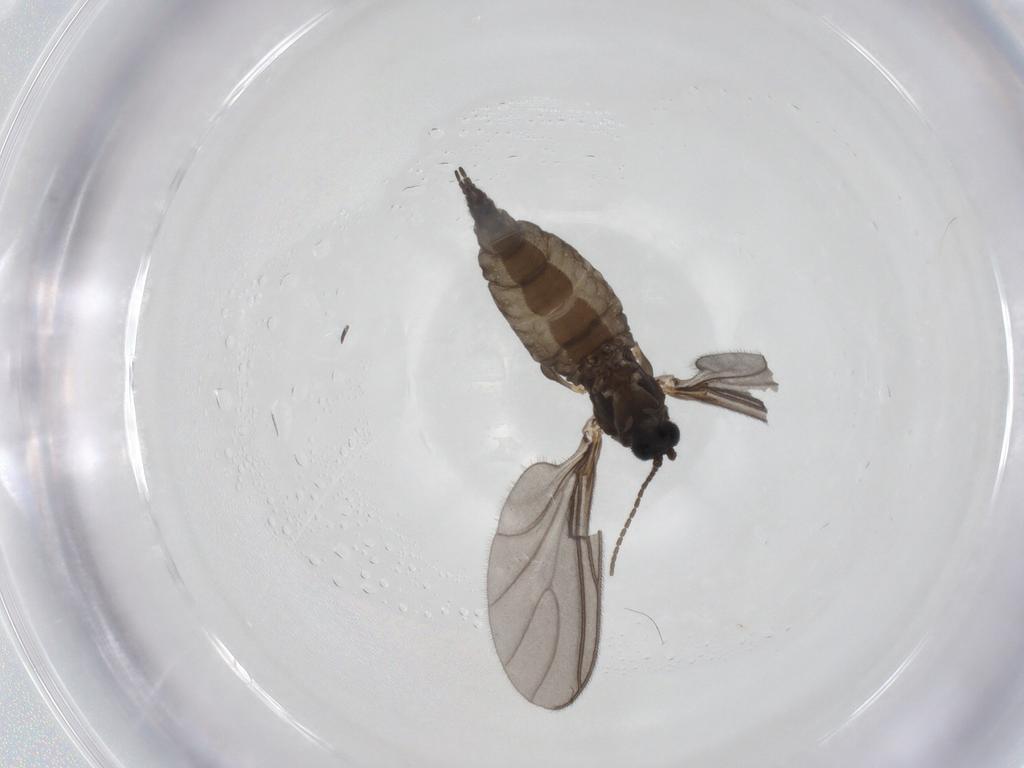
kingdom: Animalia
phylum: Arthropoda
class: Insecta
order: Diptera
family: Sciaridae
